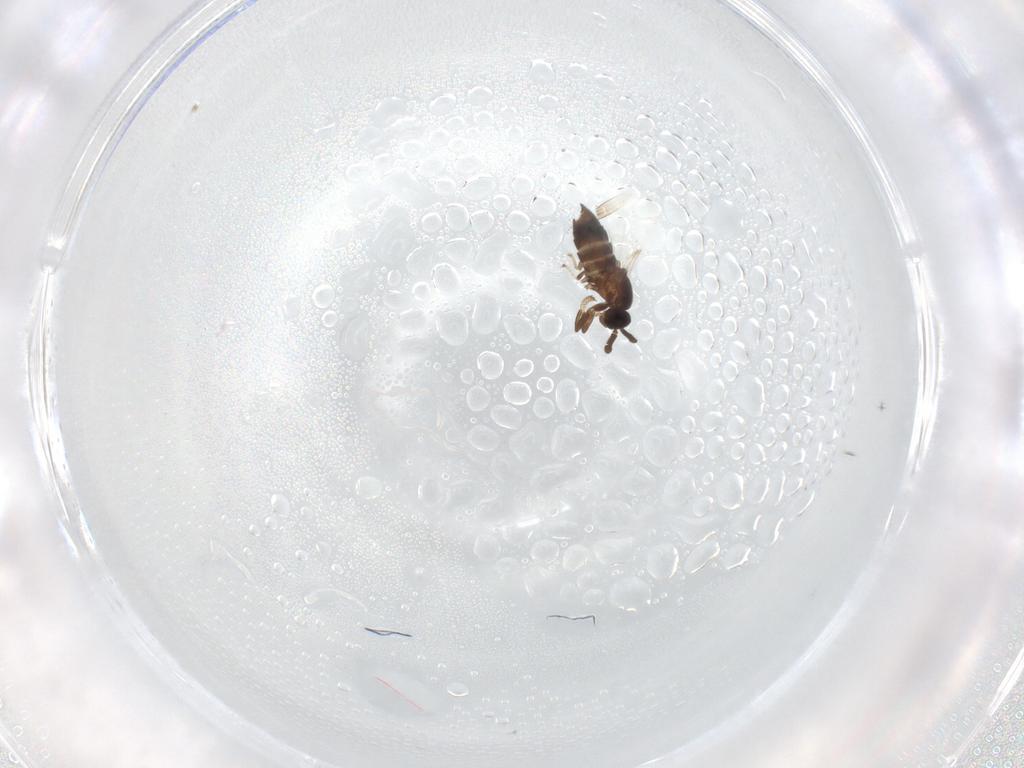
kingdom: Animalia
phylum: Arthropoda
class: Insecta
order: Diptera
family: Scatopsidae
